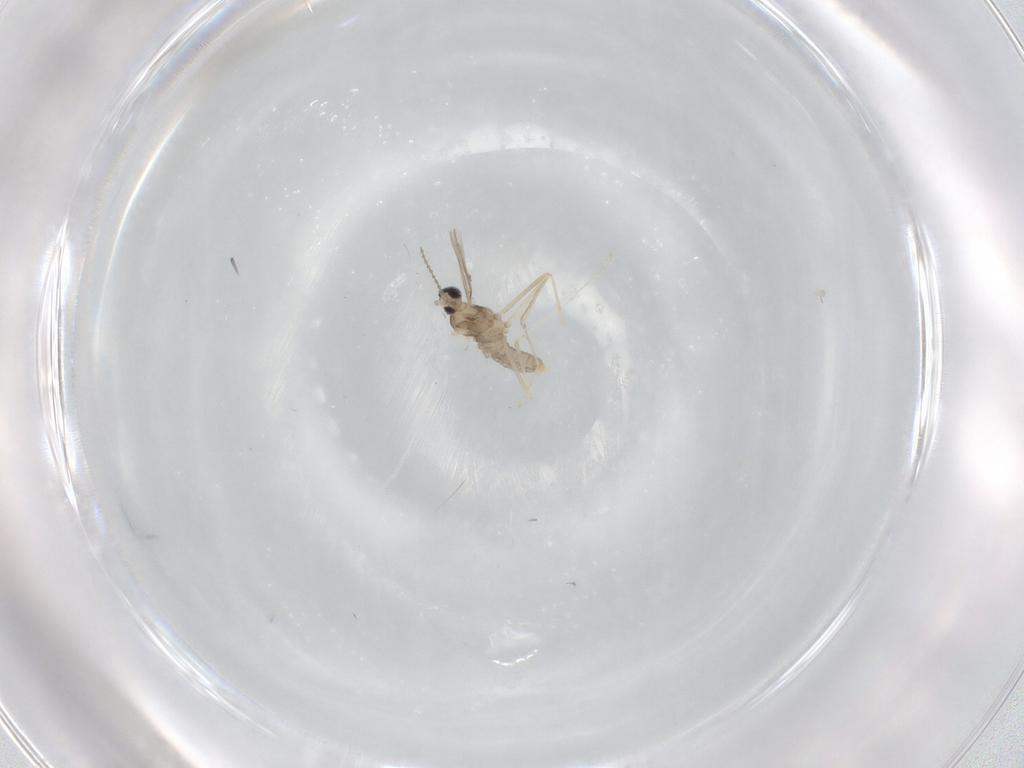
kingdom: Animalia
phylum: Arthropoda
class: Insecta
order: Diptera
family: Cecidomyiidae
